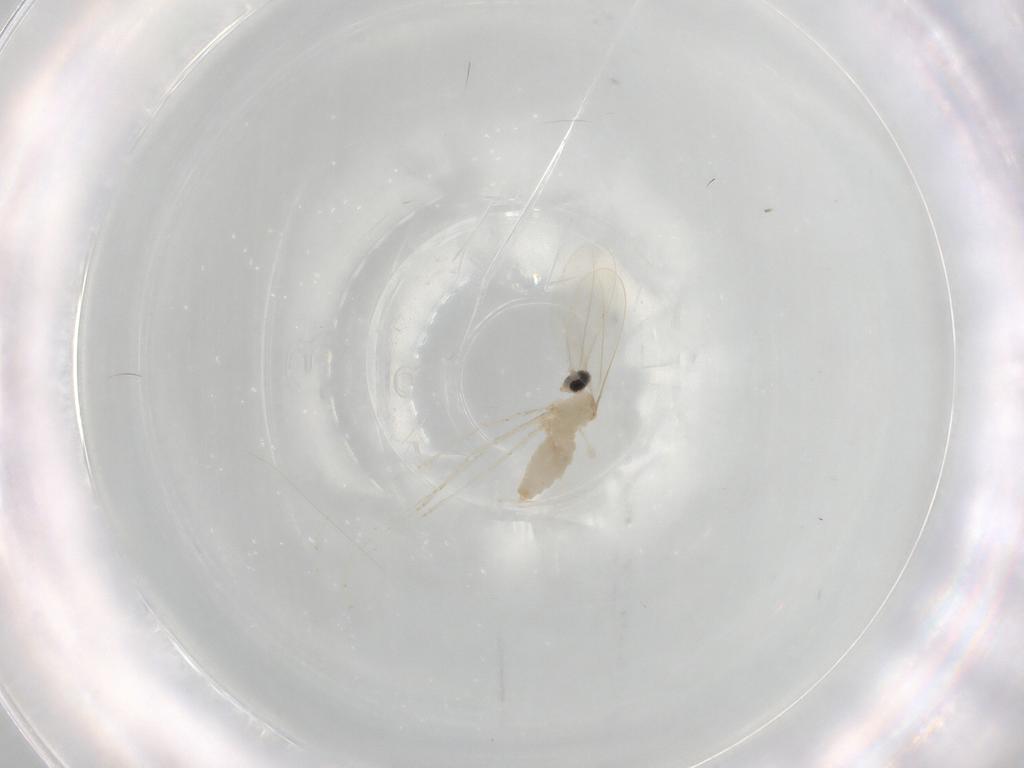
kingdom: Animalia
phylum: Arthropoda
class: Insecta
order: Diptera
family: Cecidomyiidae
